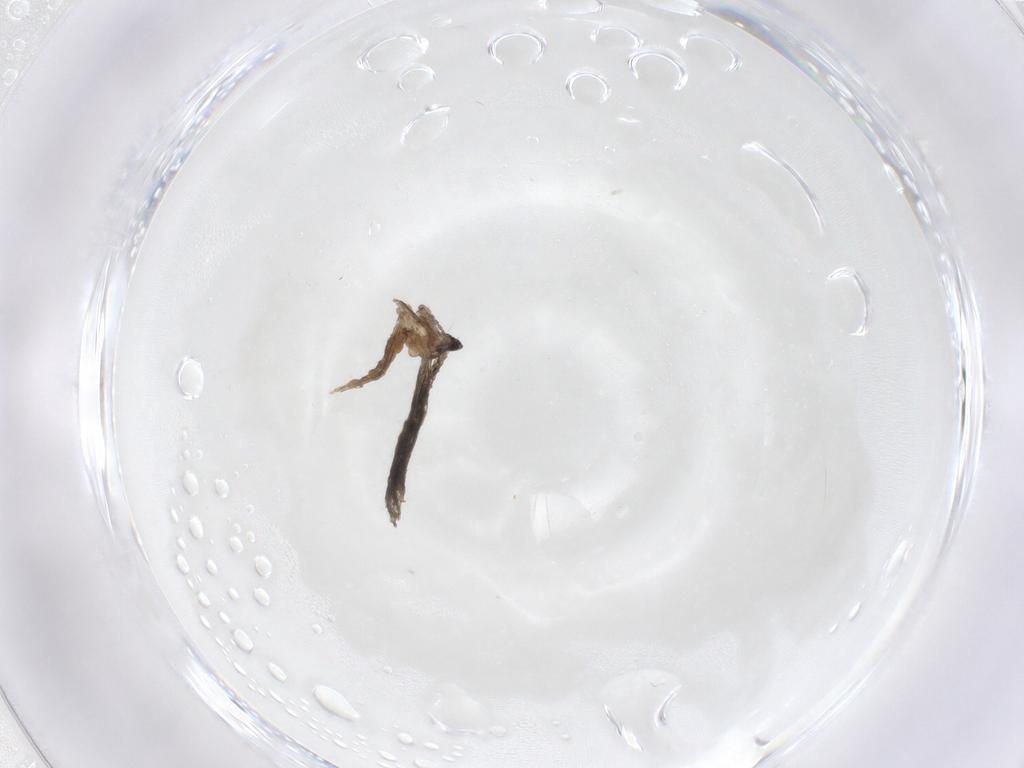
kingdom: Animalia
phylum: Arthropoda
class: Insecta
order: Diptera
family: Cecidomyiidae
